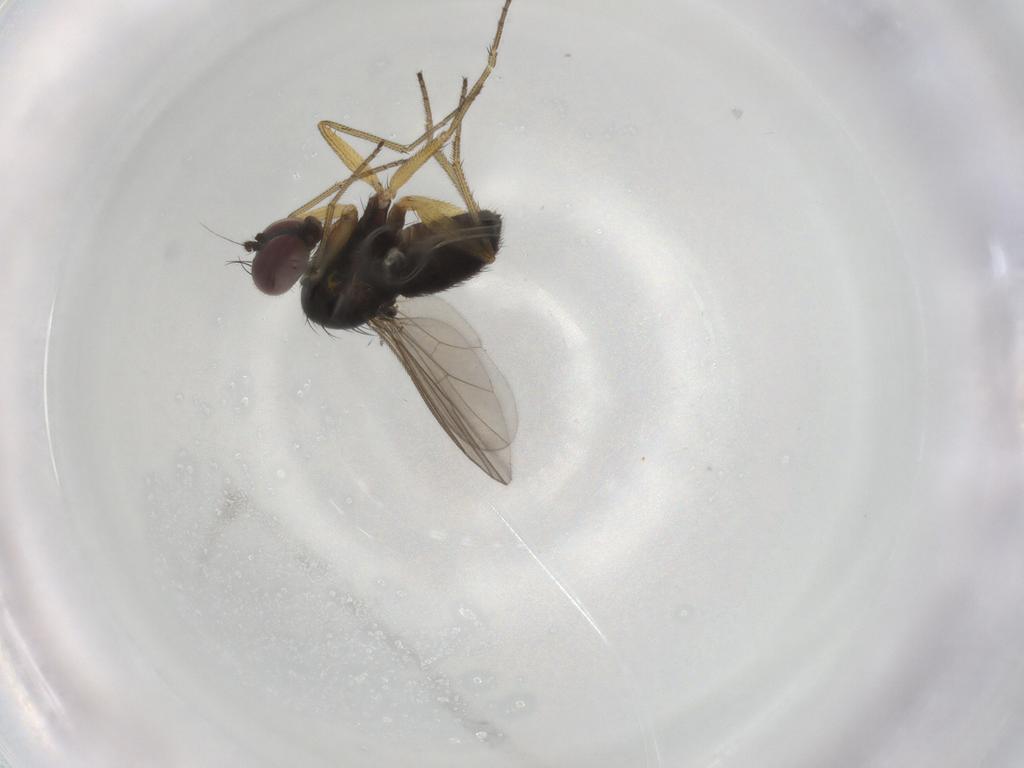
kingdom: Animalia
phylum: Arthropoda
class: Insecta
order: Diptera
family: Dolichopodidae
